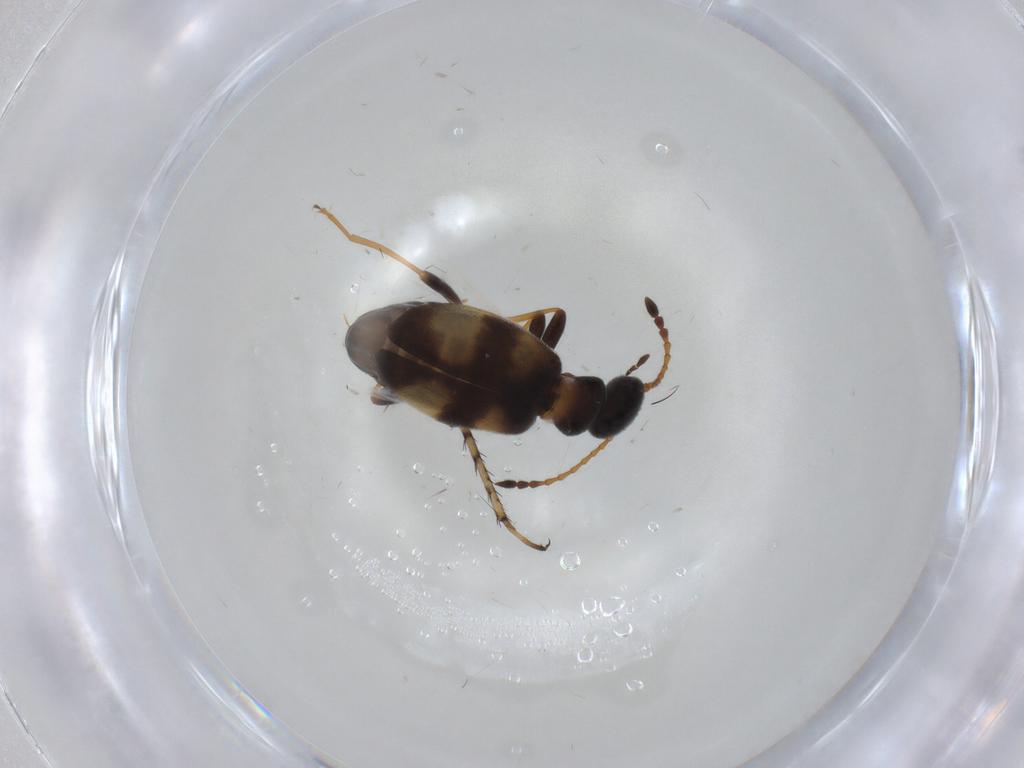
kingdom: Animalia
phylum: Arthropoda
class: Insecta
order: Coleoptera
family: Anthicidae
